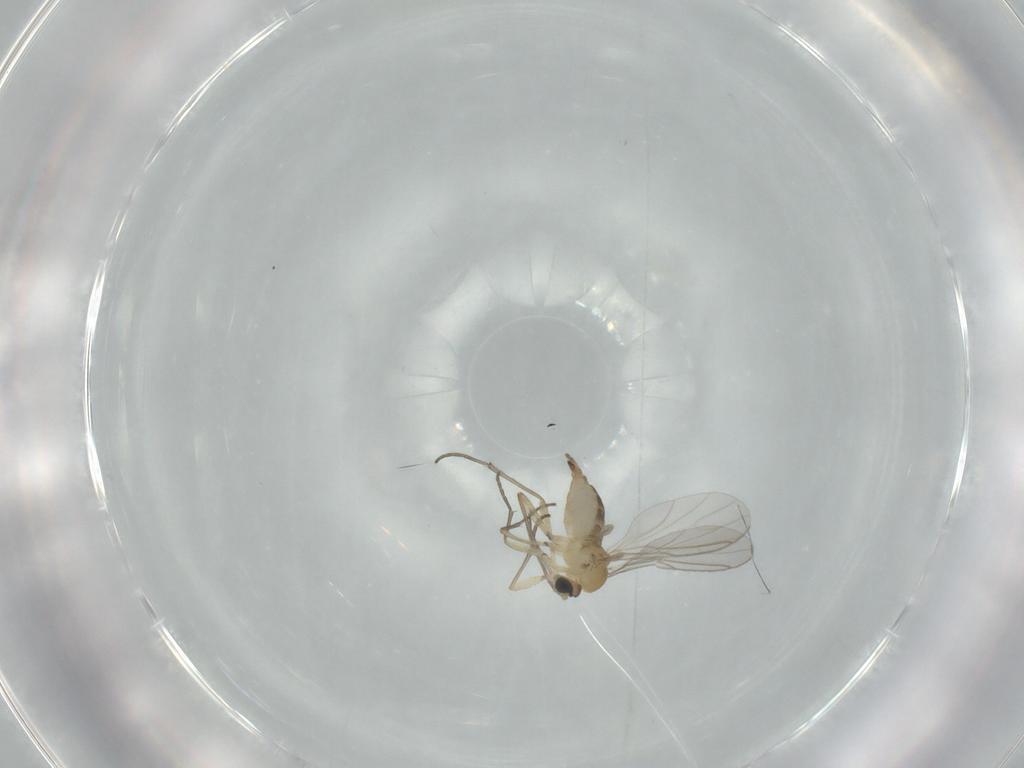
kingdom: Animalia
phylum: Arthropoda
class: Insecta
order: Diptera
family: Sciaridae
